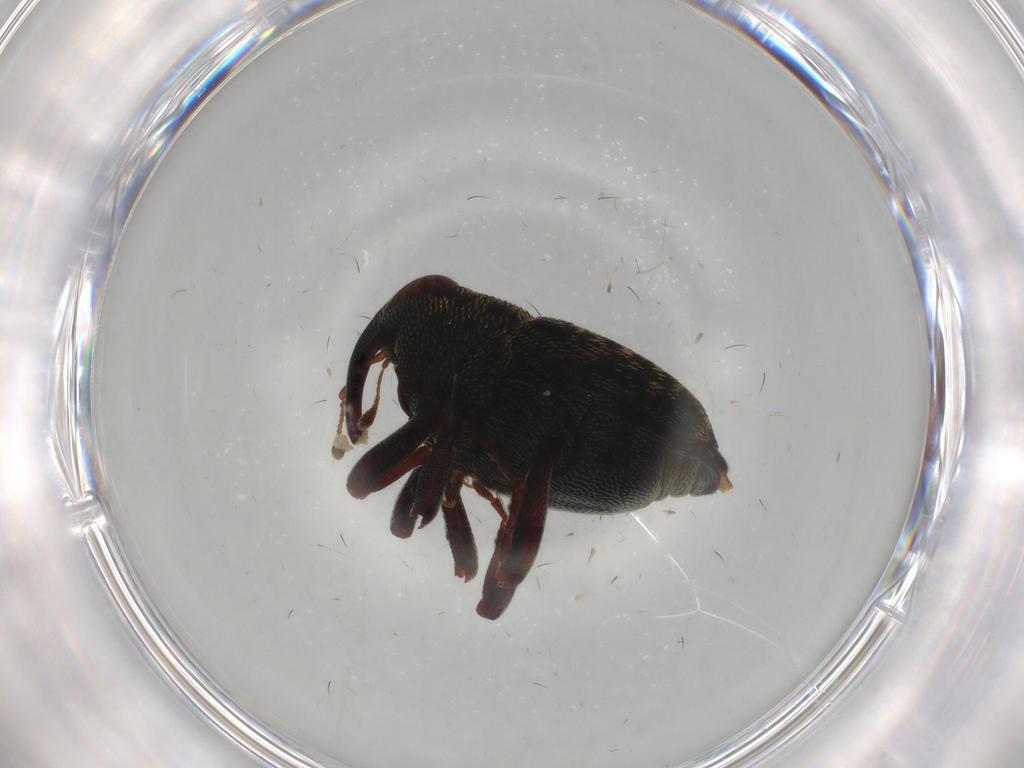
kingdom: Animalia
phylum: Arthropoda
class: Insecta
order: Coleoptera
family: Curculionidae
